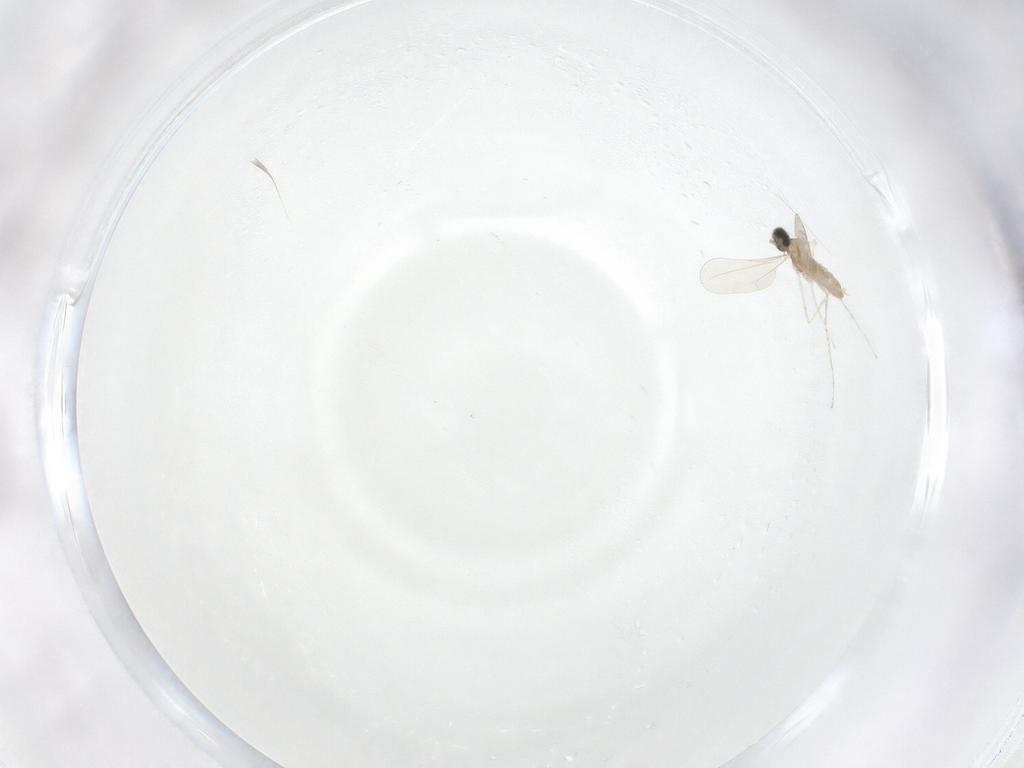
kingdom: Animalia
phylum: Arthropoda
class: Insecta
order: Diptera
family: Cecidomyiidae
